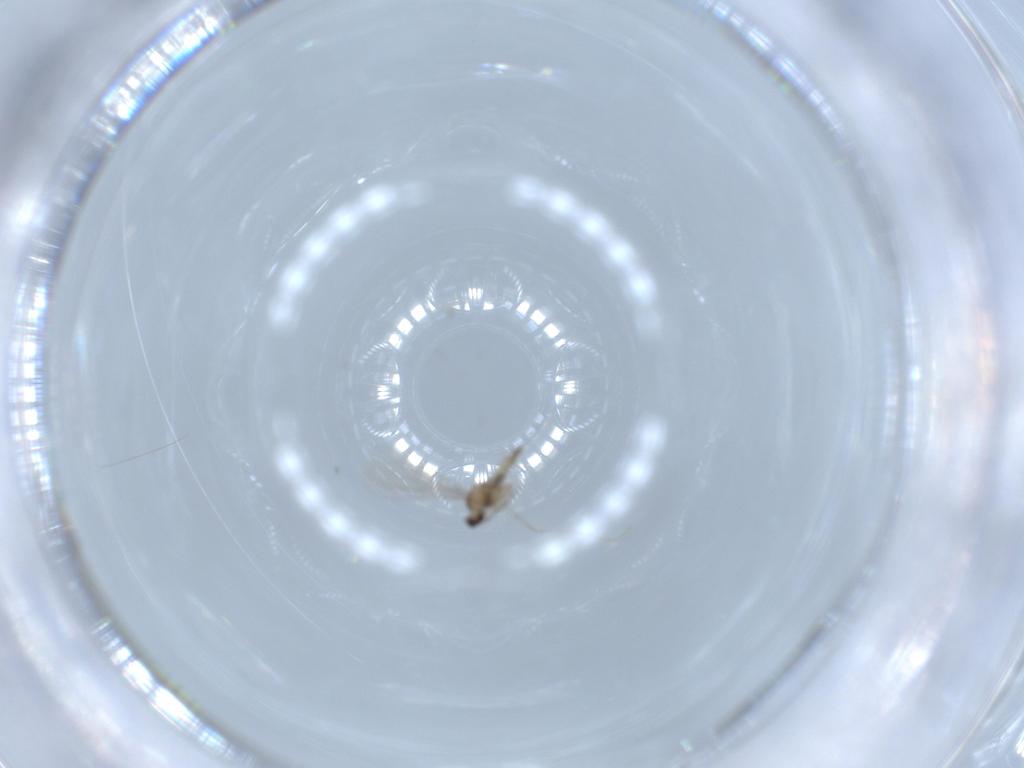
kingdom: Animalia
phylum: Arthropoda
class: Insecta
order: Diptera
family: Cecidomyiidae
